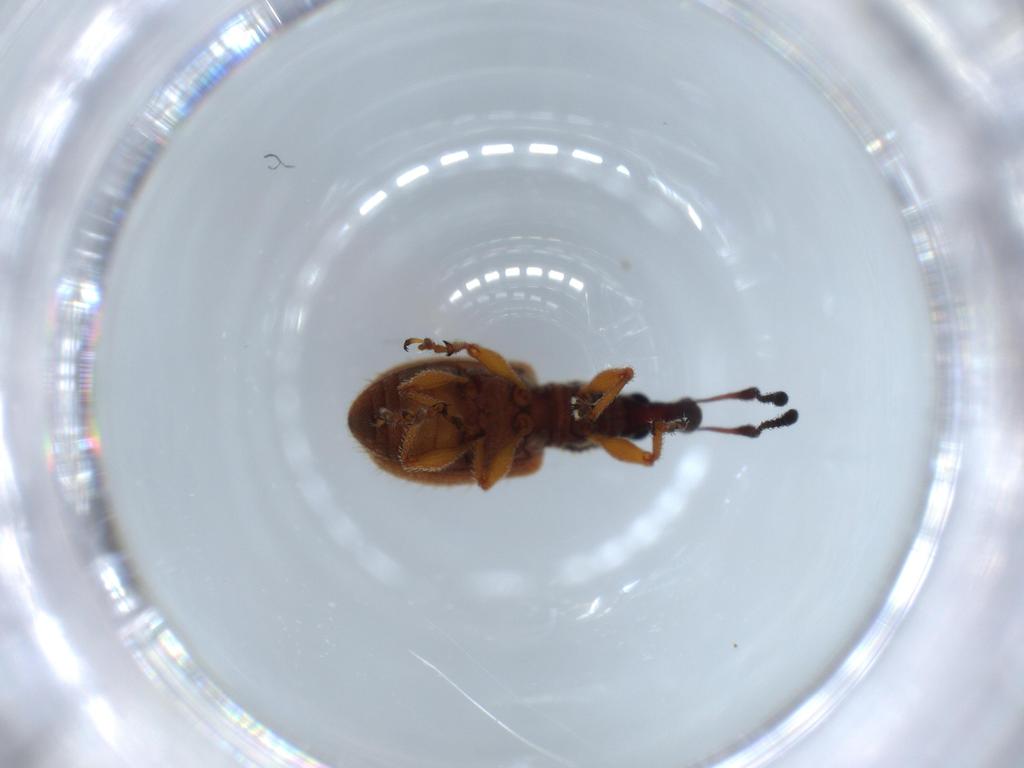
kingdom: Animalia
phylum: Arthropoda
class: Insecta
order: Coleoptera
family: Curculionidae
